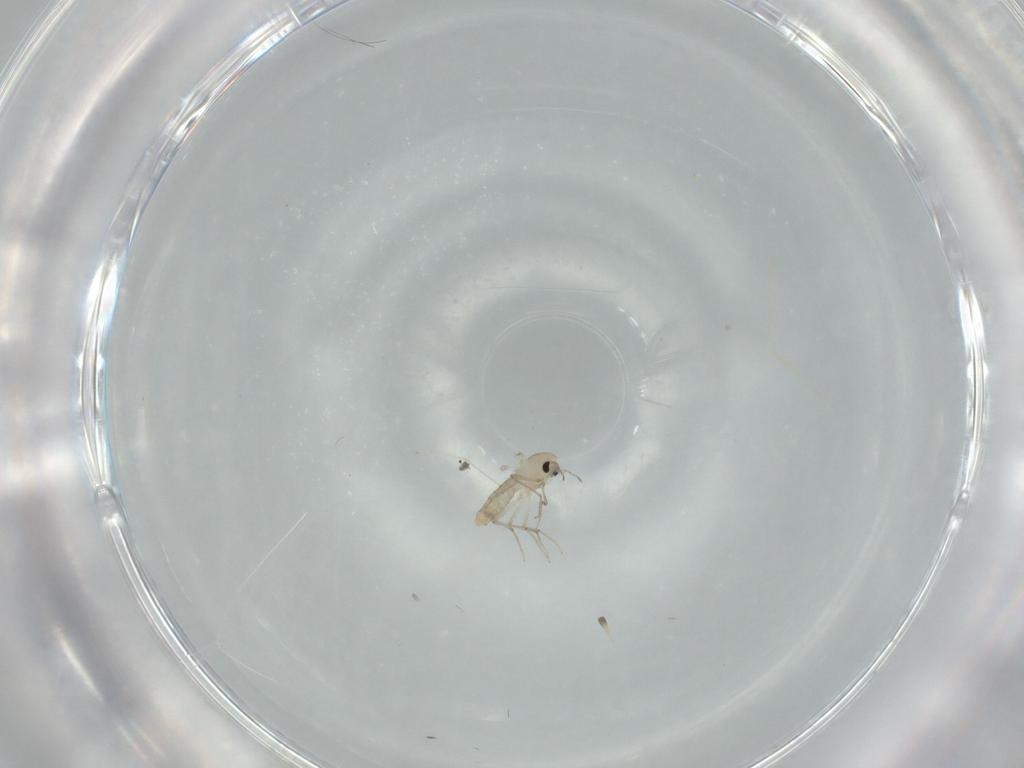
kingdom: Animalia
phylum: Arthropoda
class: Insecta
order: Diptera
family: Chironomidae
